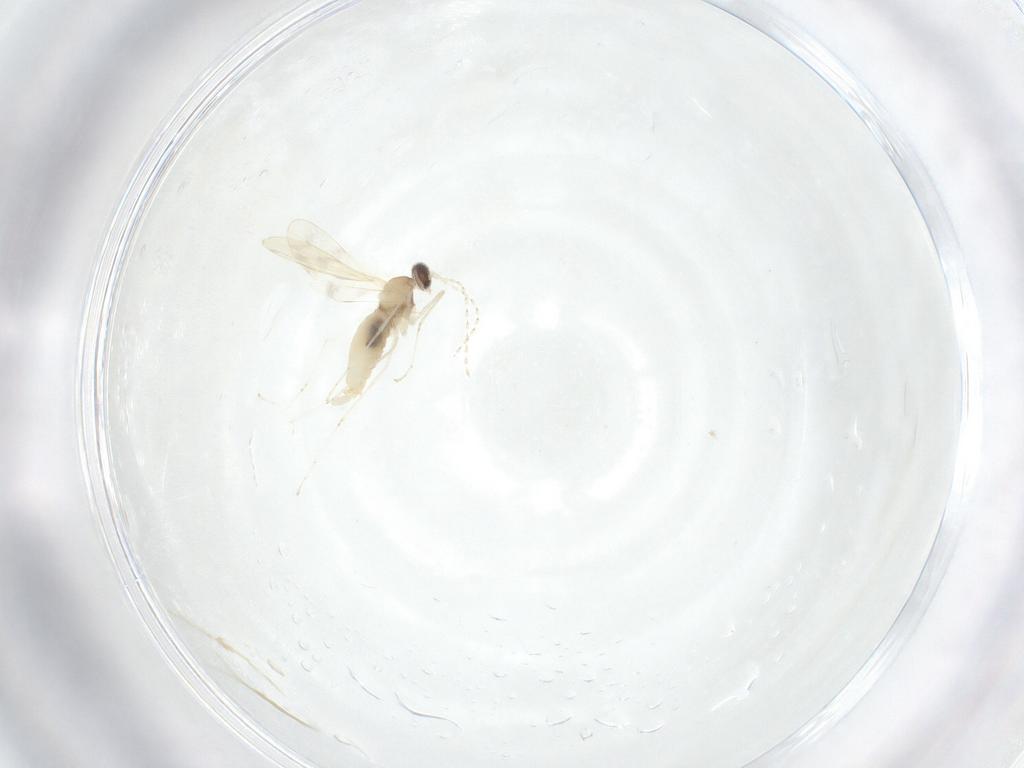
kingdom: Animalia
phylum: Arthropoda
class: Insecta
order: Diptera
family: Cecidomyiidae
